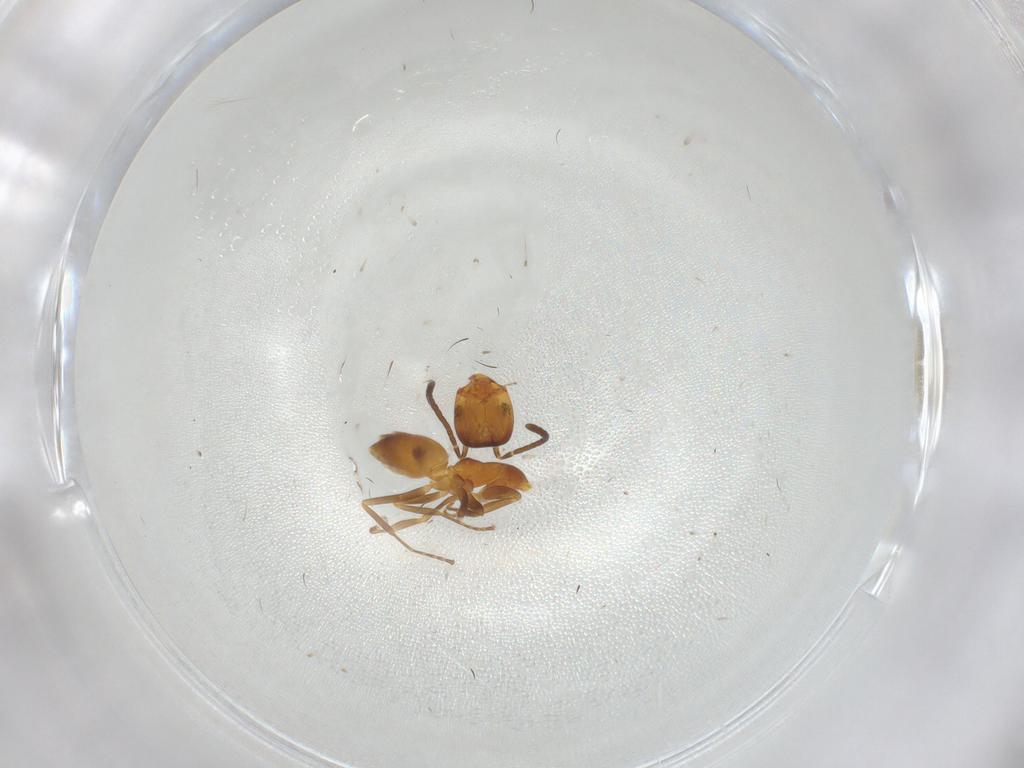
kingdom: Animalia
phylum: Arthropoda
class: Insecta
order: Hymenoptera
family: Formicidae
